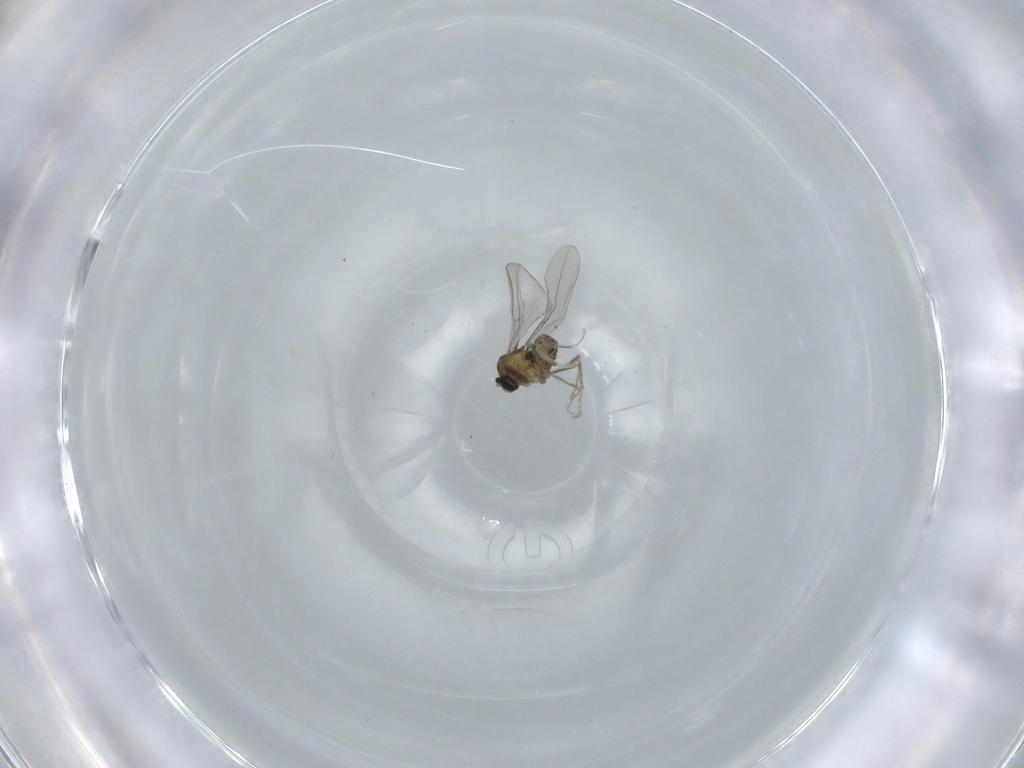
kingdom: Animalia
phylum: Arthropoda
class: Insecta
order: Diptera
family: Cecidomyiidae
